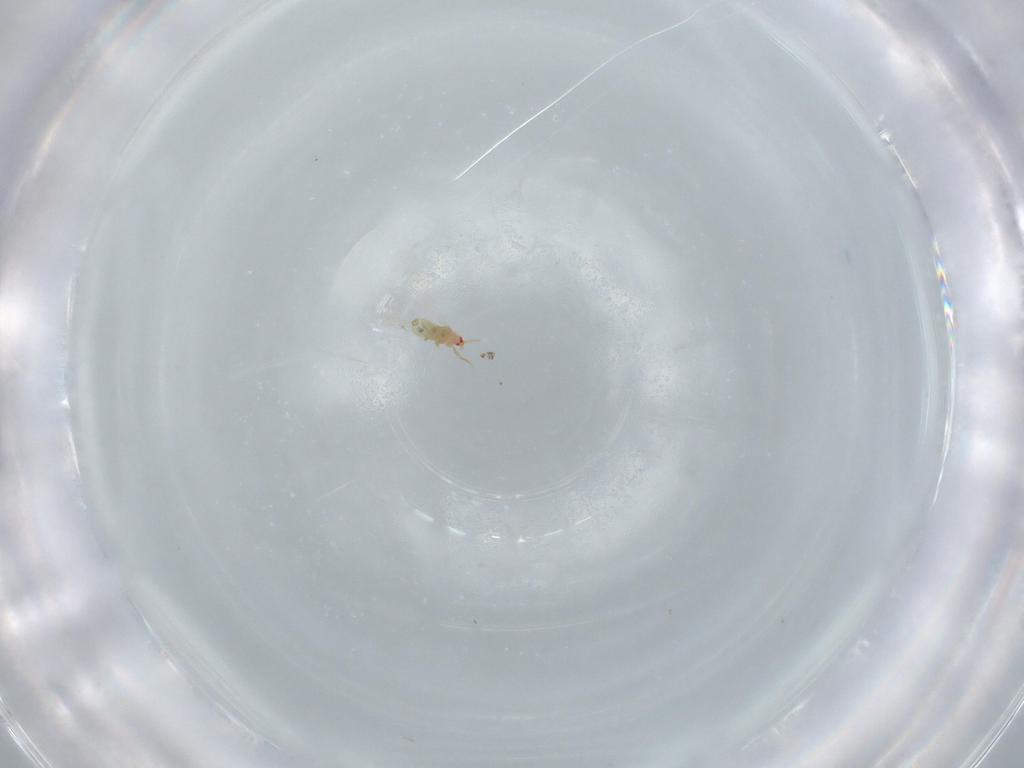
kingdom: Animalia
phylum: Arthropoda
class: Insecta
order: Hemiptera
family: Coccoidea_incertae_sedis
